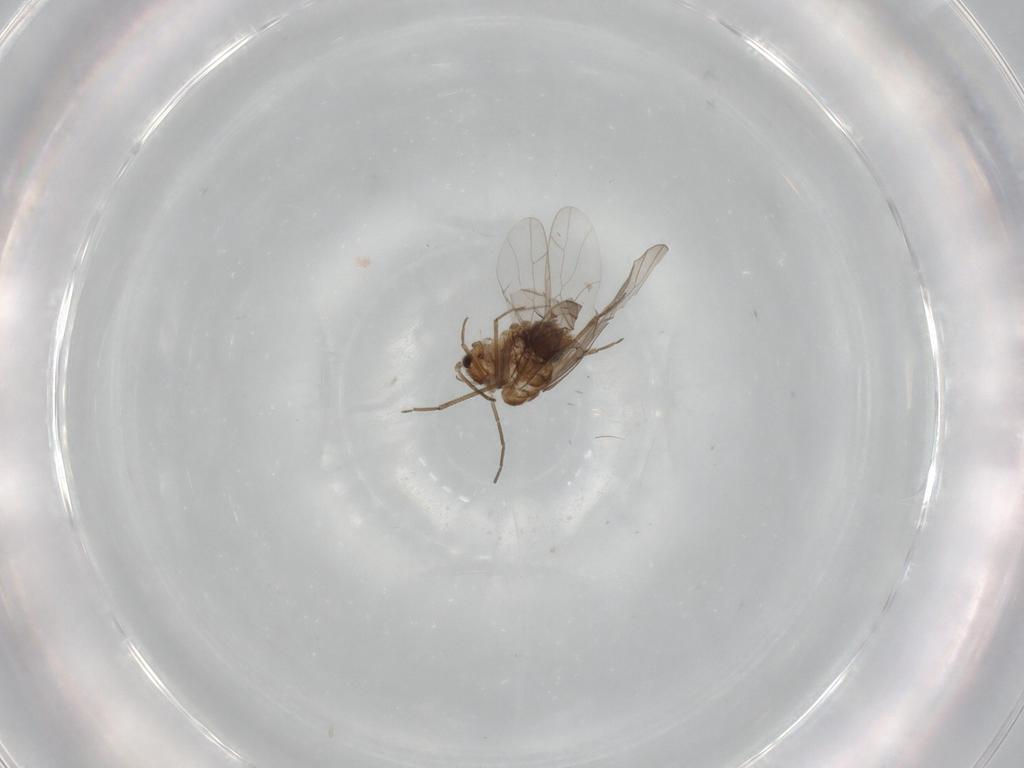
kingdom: Animalia
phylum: Arthropoda
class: Insecta
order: Psocodea
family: Lachesillidae
